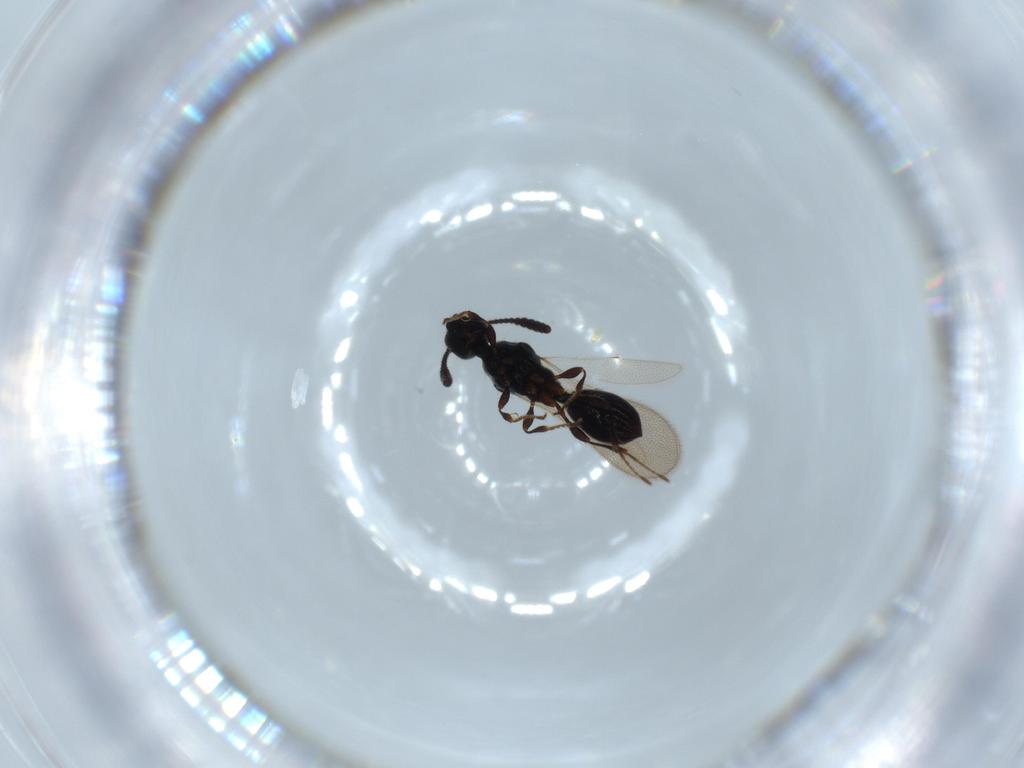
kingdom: Animalia
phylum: Arthropoda
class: Insecta
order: Hymenoptera
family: Diapriidae
